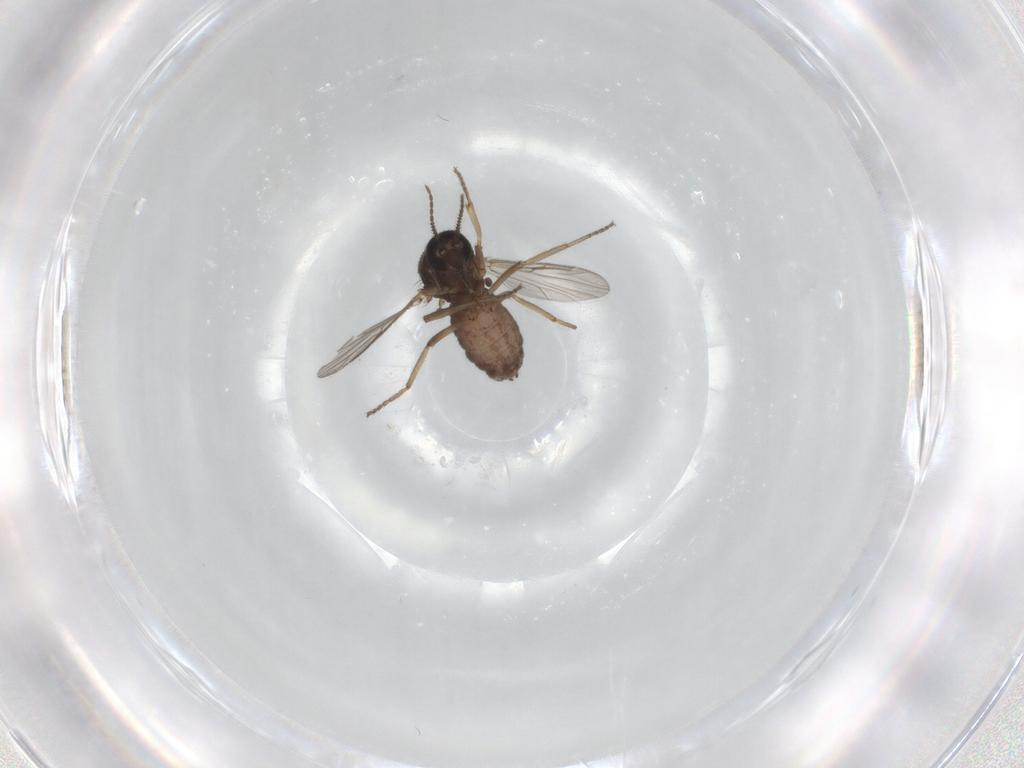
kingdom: Animalia
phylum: Arthropoda
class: Insecta
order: Diptera
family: Ceratopogonidae
